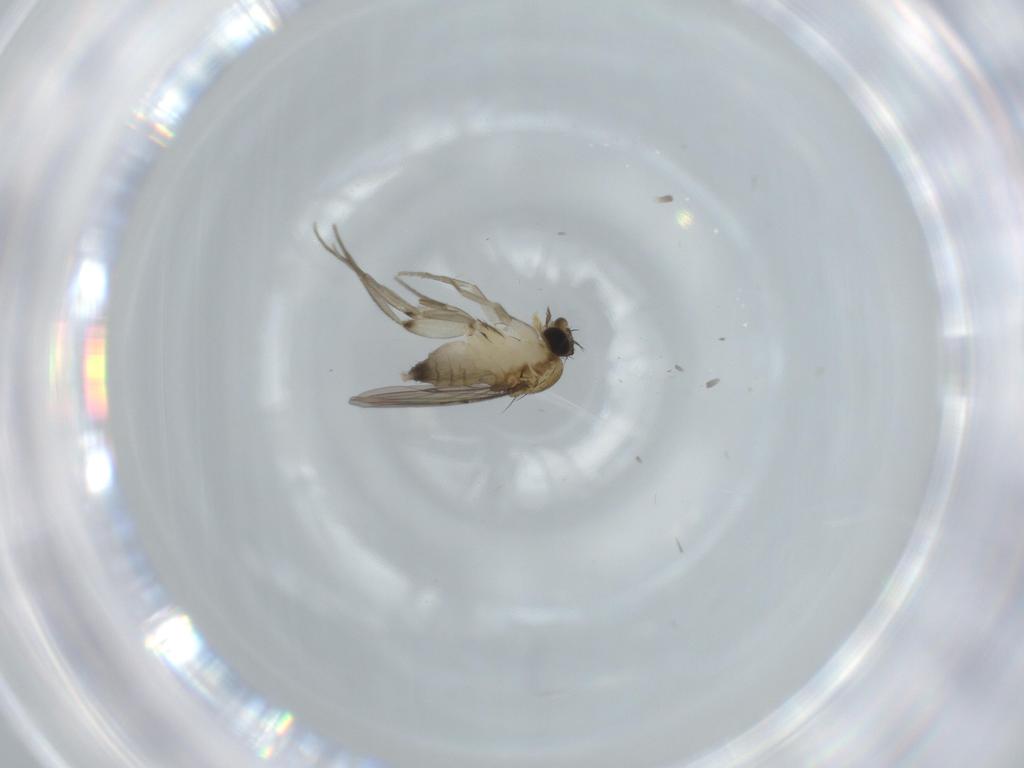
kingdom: Animalia
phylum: Arthropoda
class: Insecta
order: Diptera
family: Phoridae
